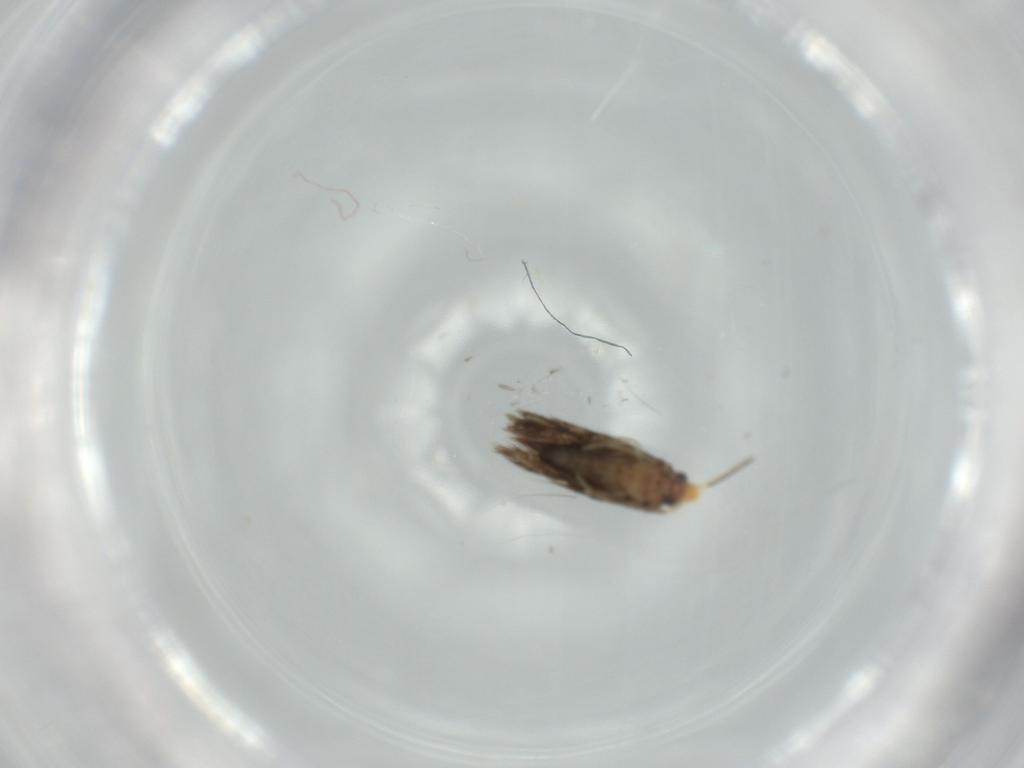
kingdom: Animalia
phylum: Arthropoda
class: Insecta
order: Lepidoptera
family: Nepticulidae
